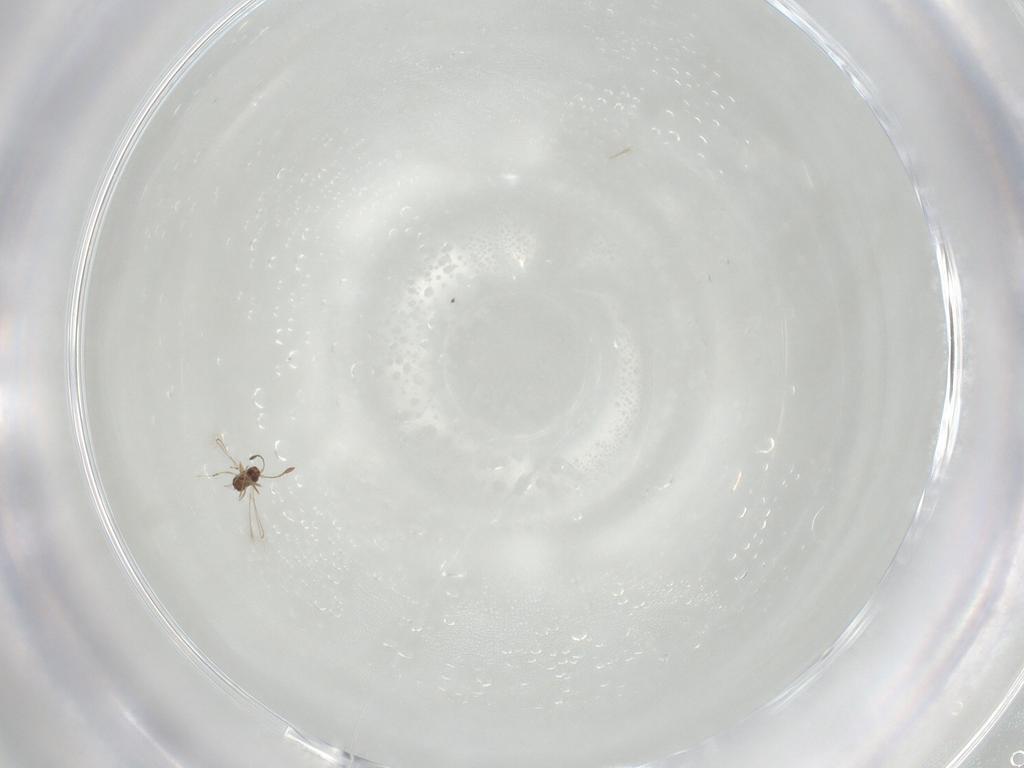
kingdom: Animalia
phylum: Arthropoda
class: Insecta
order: Hymenoptera
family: Eulophidae
